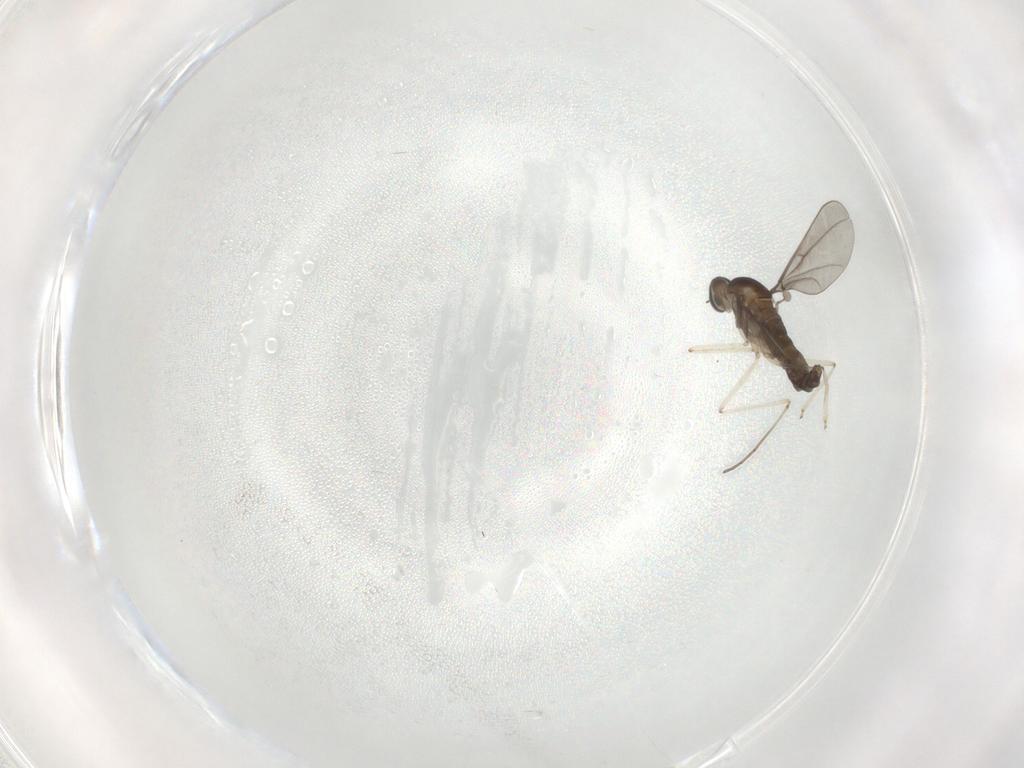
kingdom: Animalia
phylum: Arthropoda
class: Insecta
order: Diptera
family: Cecidomyiidae
